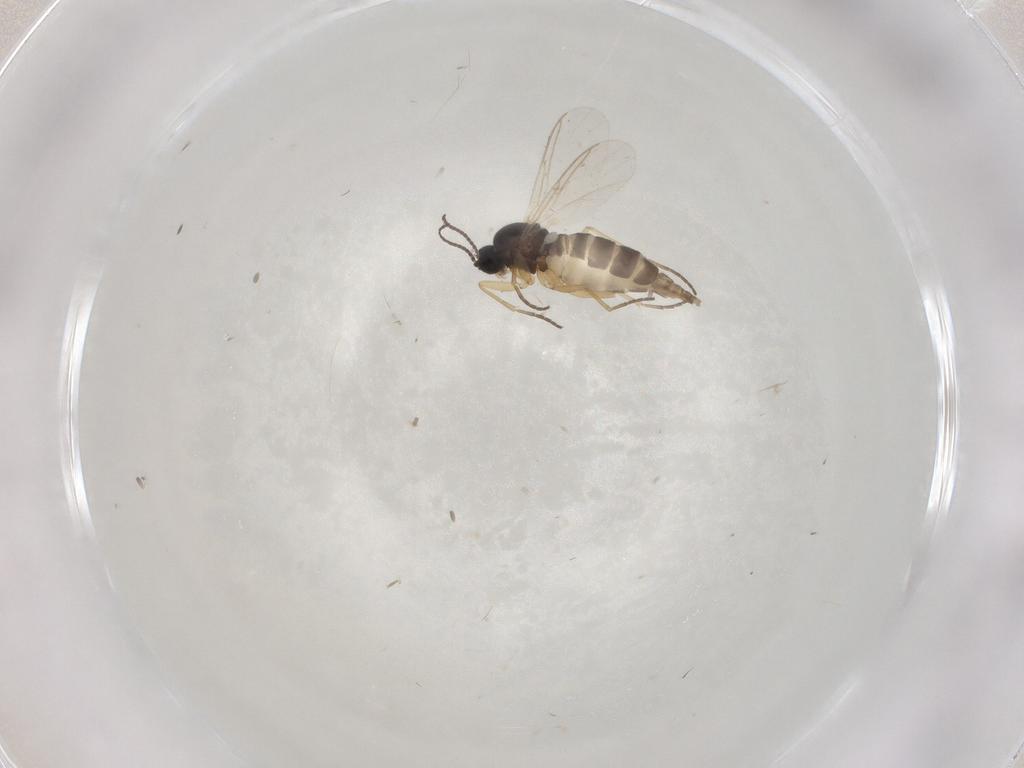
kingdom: Animalia
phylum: Arthropoda
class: Insecta
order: Diptera
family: Sciaridae
